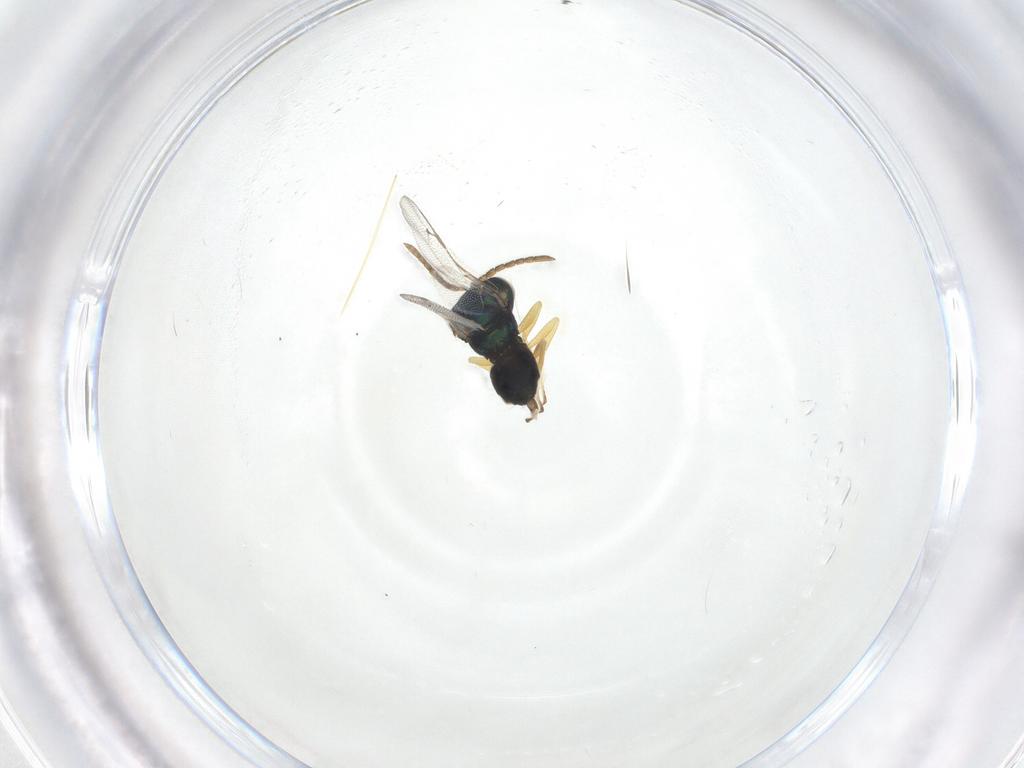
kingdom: Animalia
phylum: Arthropoda
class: Insecta
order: Hymenoptera
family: Pteromalidae
